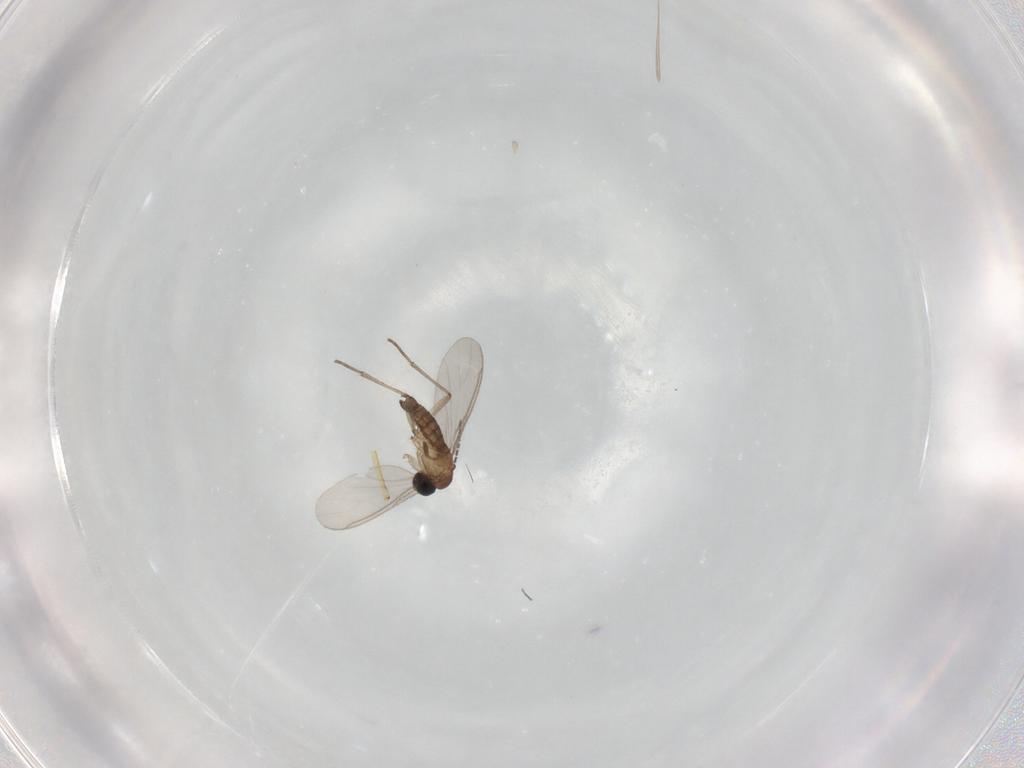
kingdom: Animalia
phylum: Arthropoda
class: Insecta
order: Diptera
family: Sciaridae
